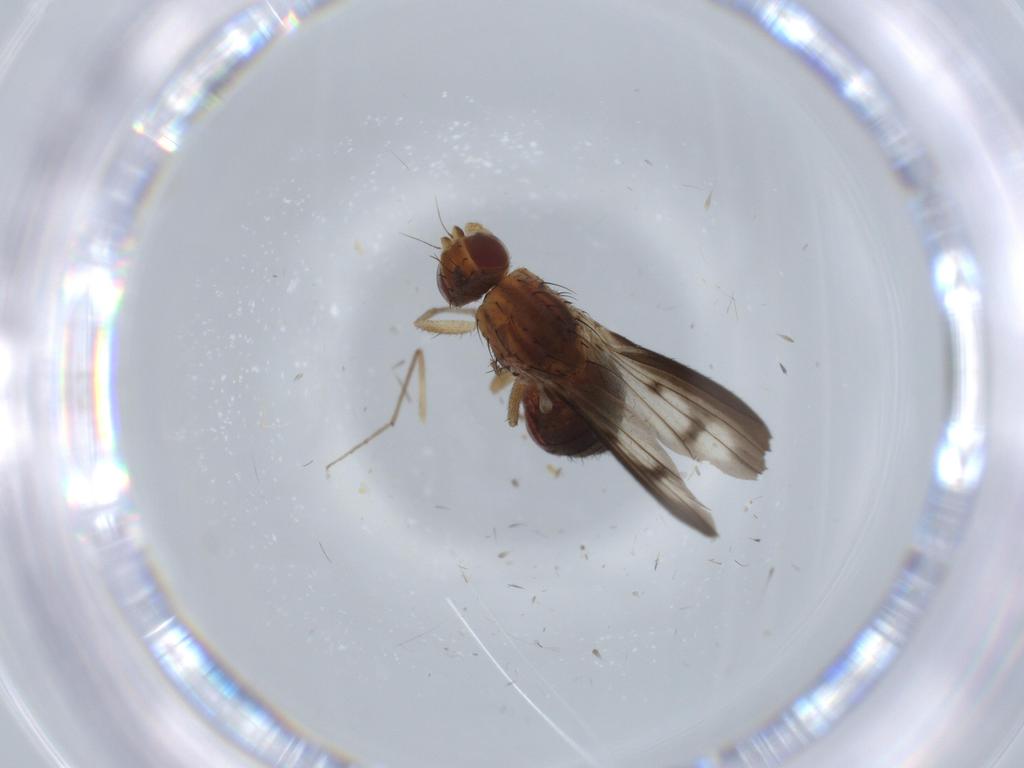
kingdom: Animalia
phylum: Arthropoda
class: Insecta
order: Diptera
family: Heleomyzidae
